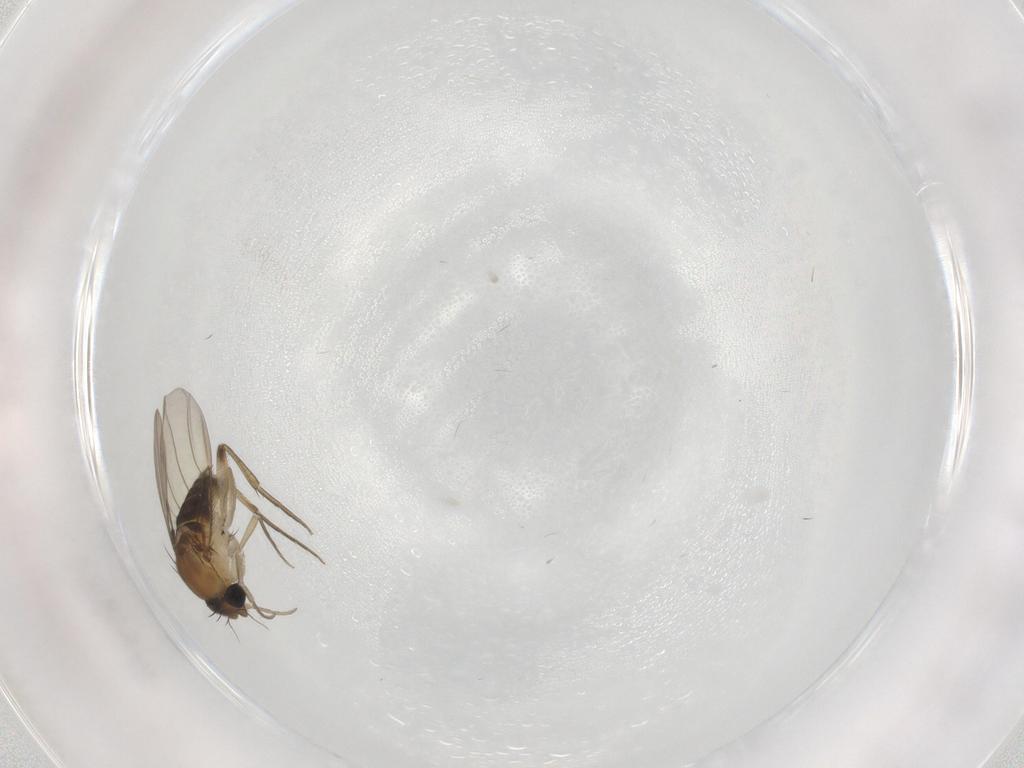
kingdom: Animalia
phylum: Arthropoda
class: Insecta
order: Diptera
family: Phoridae
